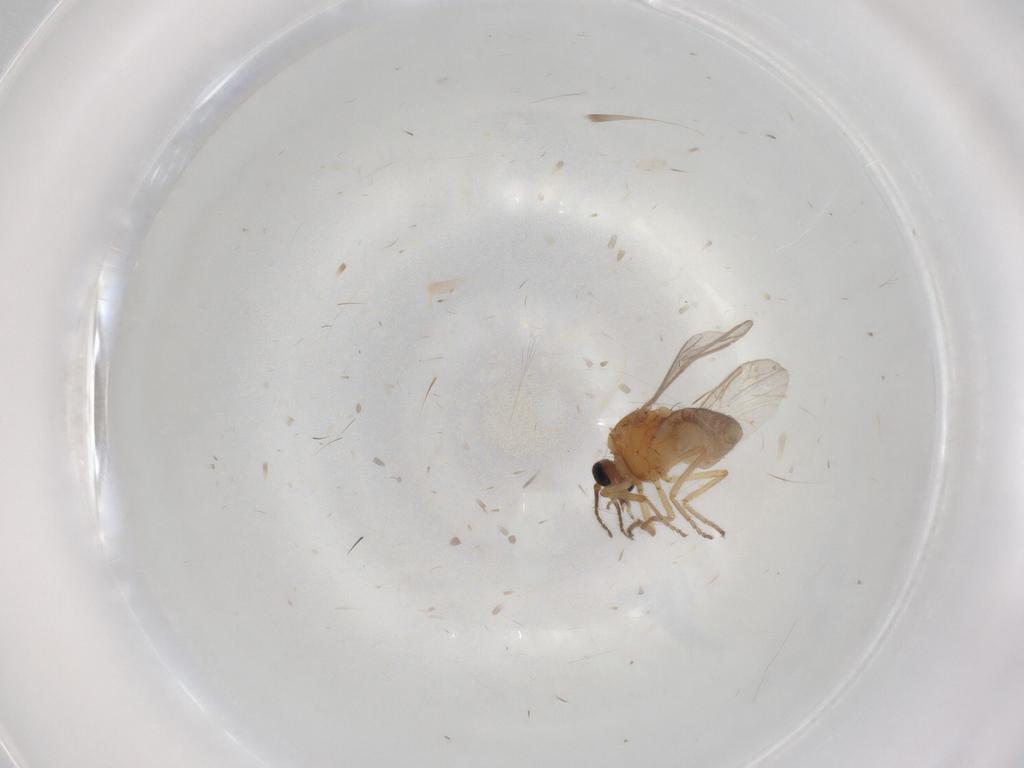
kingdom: Animalia
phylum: Arthropoda
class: Insecta
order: Diptera
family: Ceratopogonidae
